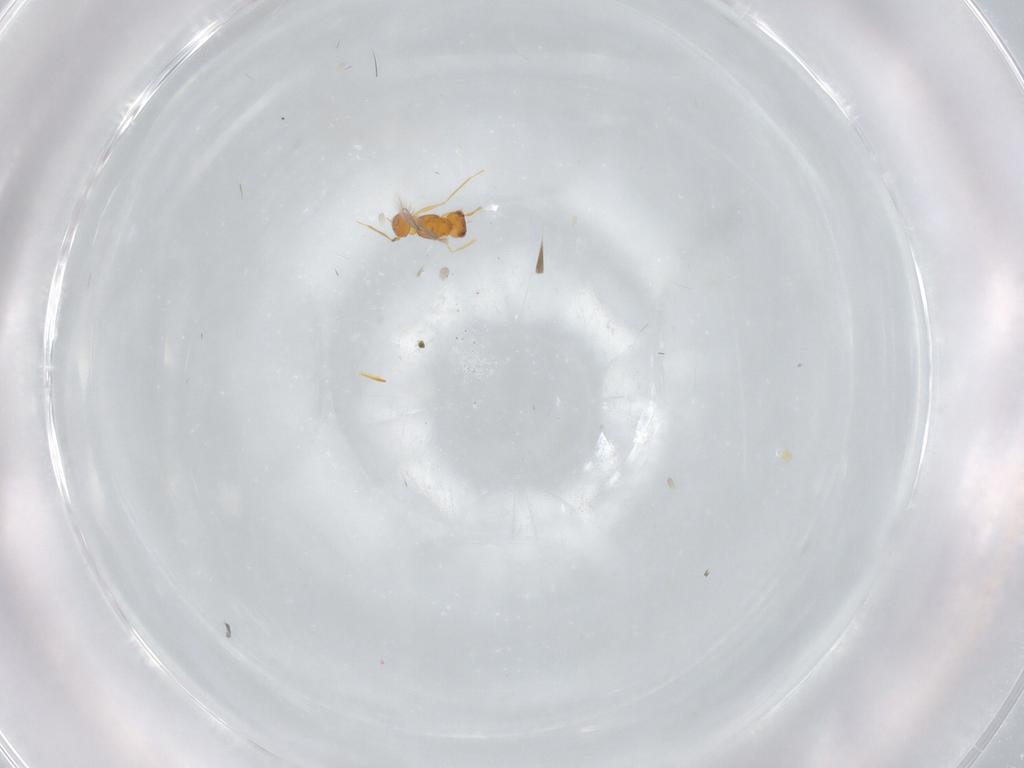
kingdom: Animalia
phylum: Arthropoda
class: Insecta
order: Hymenoptera
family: Mymaridae
